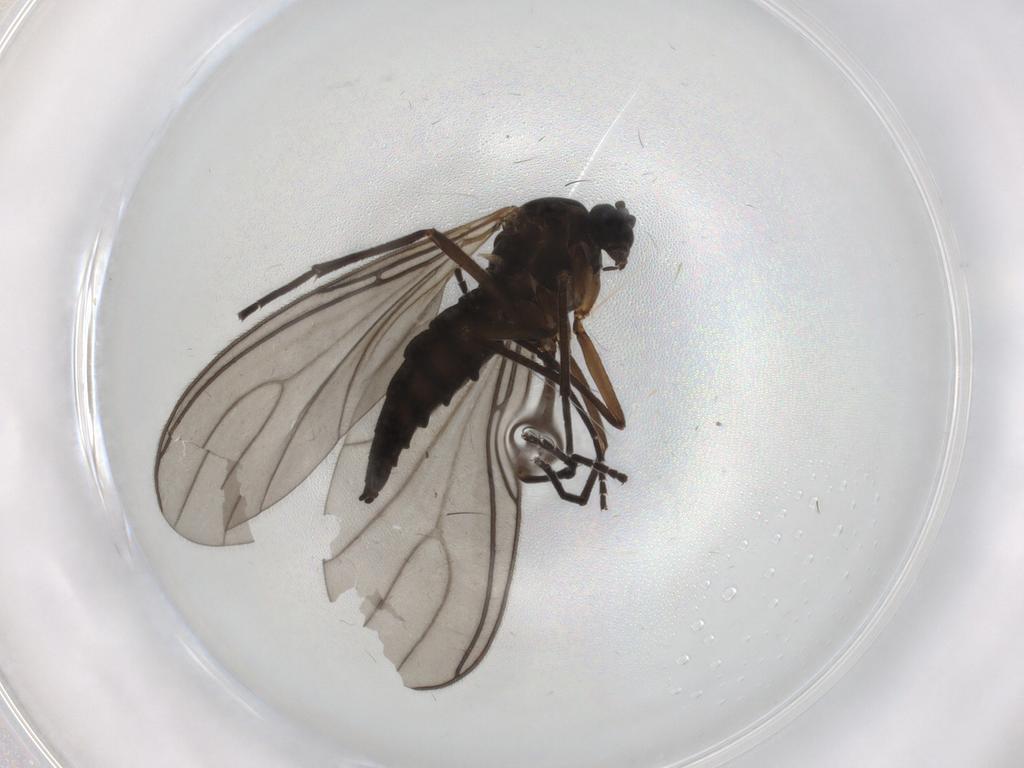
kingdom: Animalia
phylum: Arthropoda
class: Insecta
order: Diptera
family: Sciaridae
